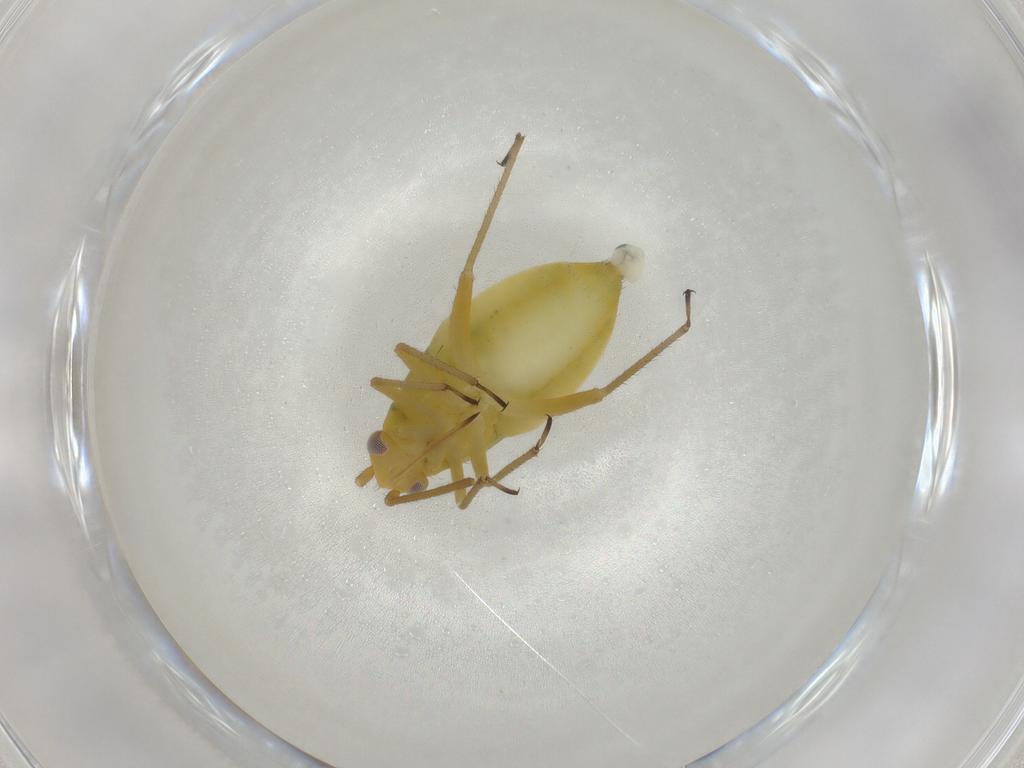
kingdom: Animalia
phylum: Arthropoda
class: Insecta
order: Hemiptera
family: Miridae
